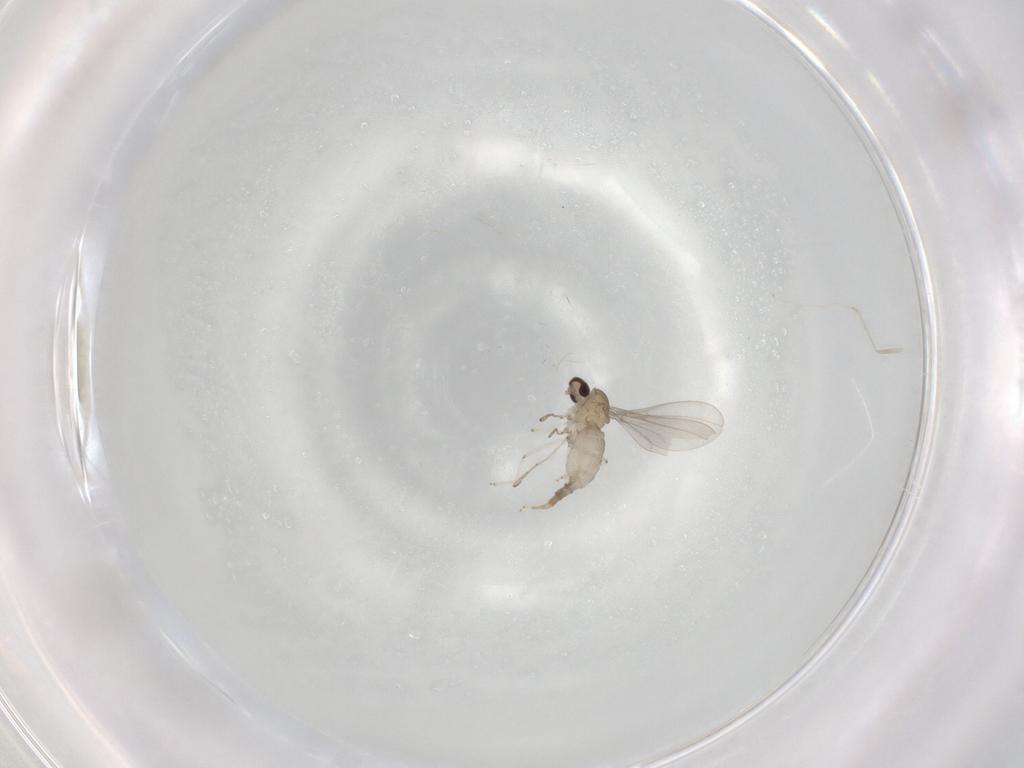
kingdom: Animalia
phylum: Arthropoda
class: Insecta
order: Diptera
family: Sciaridae
